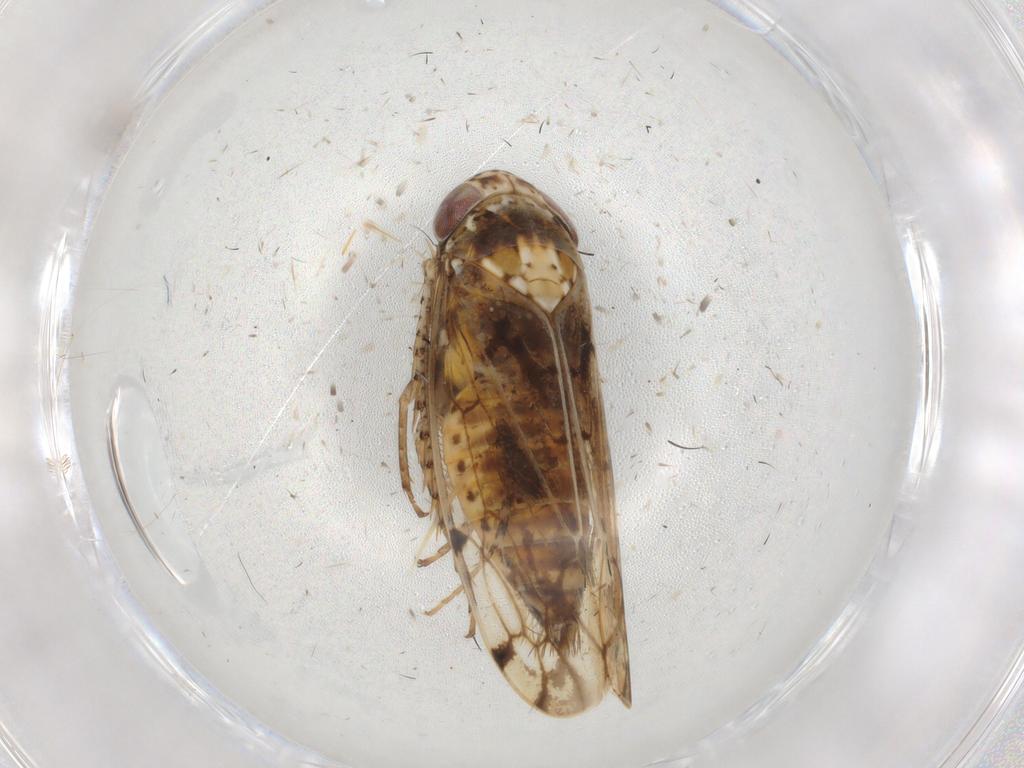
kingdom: Animalia
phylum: Arthropoda
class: Insecta
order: Hemiptera
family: Cicadellidae
